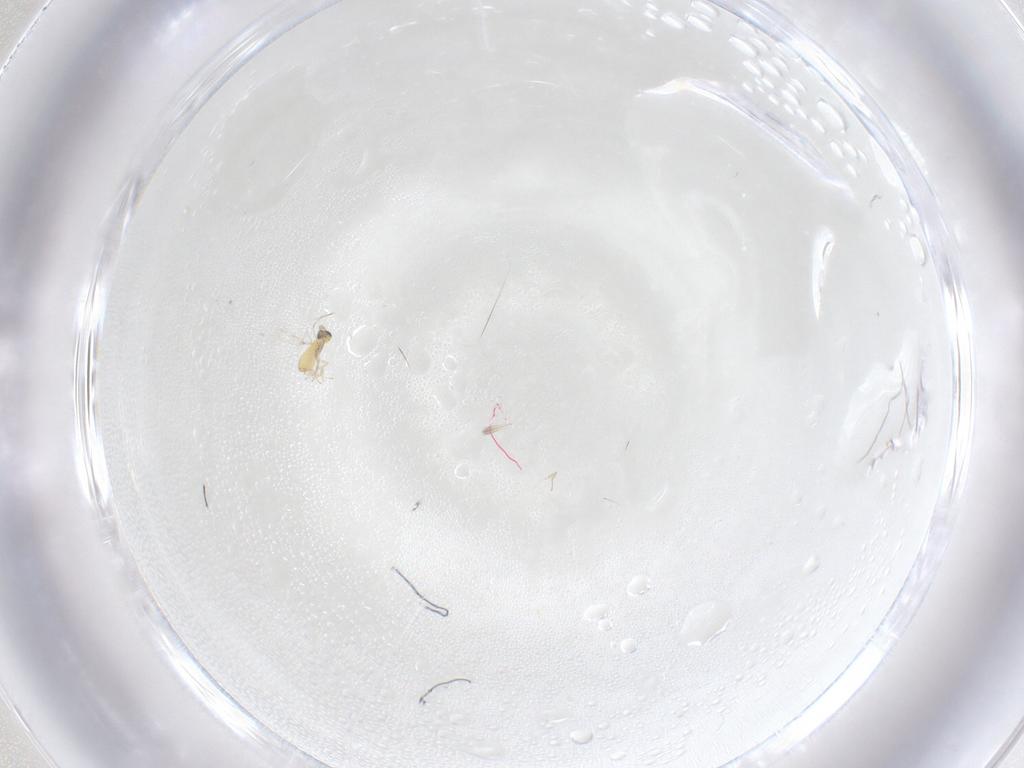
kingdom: Animalia
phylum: Arthropoda
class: Insecta
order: Hymenoptera
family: Trichogrammatidae
